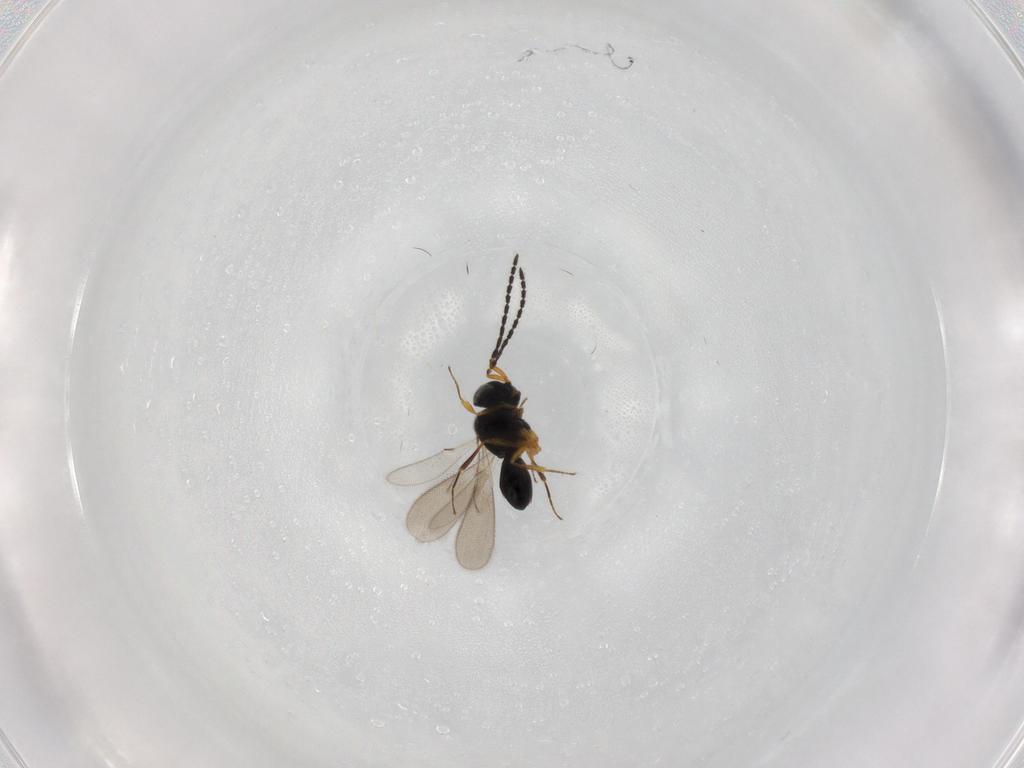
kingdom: Animalia
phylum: Arthropoda
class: Insecta
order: Hymenoptera
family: Scelionidae
